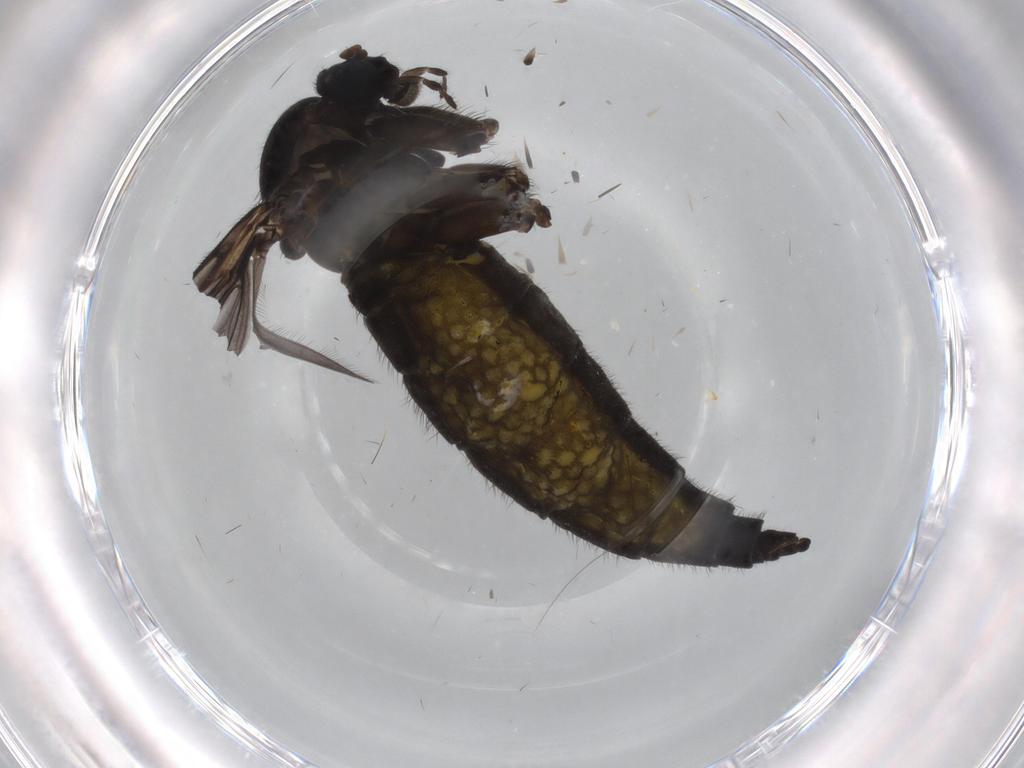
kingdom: Animalia
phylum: Arthropoda
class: Insecta
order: Diptera
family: Sciaridae
